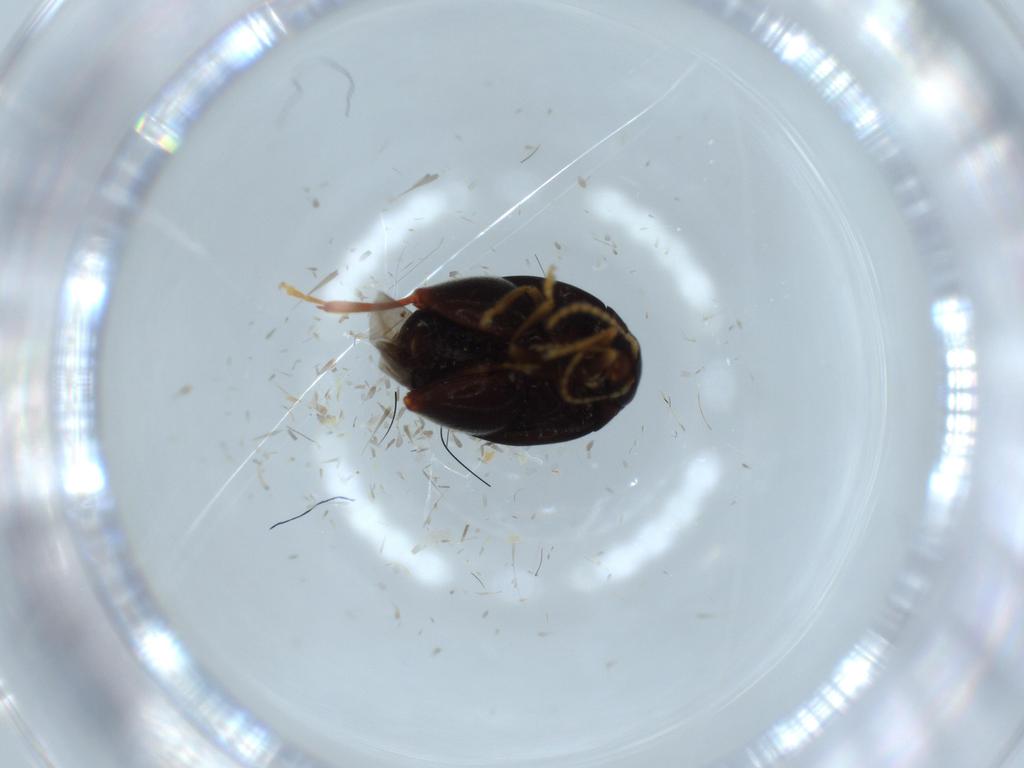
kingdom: Animalia
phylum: Arthropoda
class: Insecta
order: Coleoptera
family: Chrysomelidae
